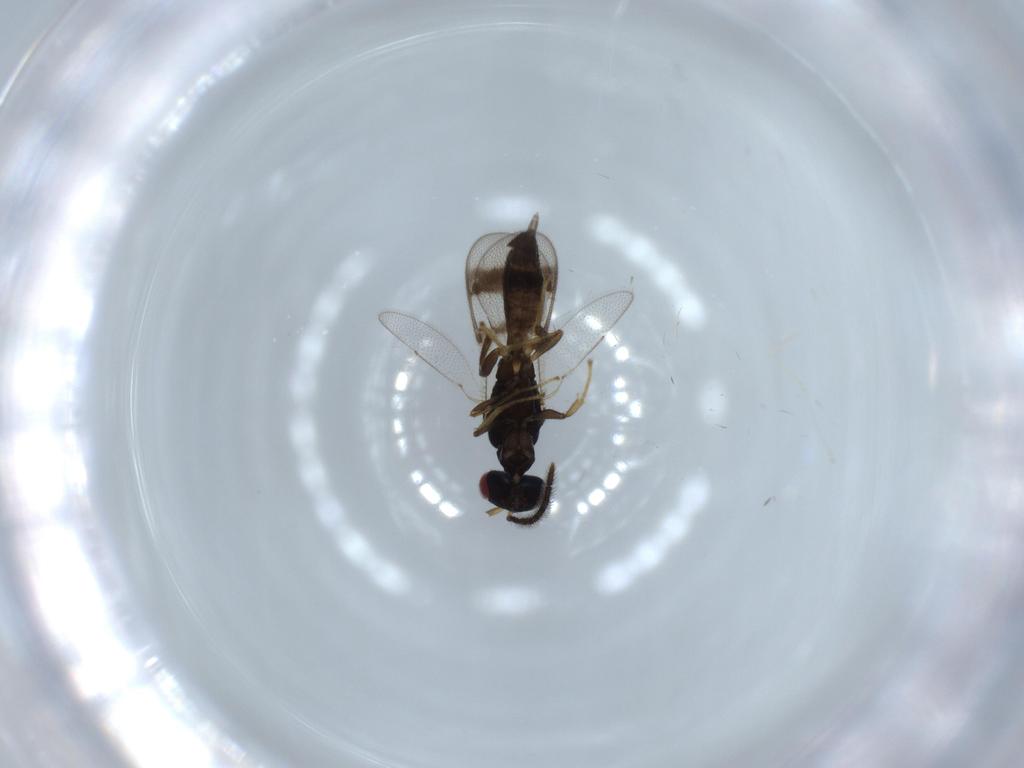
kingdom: Animalia
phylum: Arthropoda
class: Insecta
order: Hymenoptera
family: Pteromalidae
